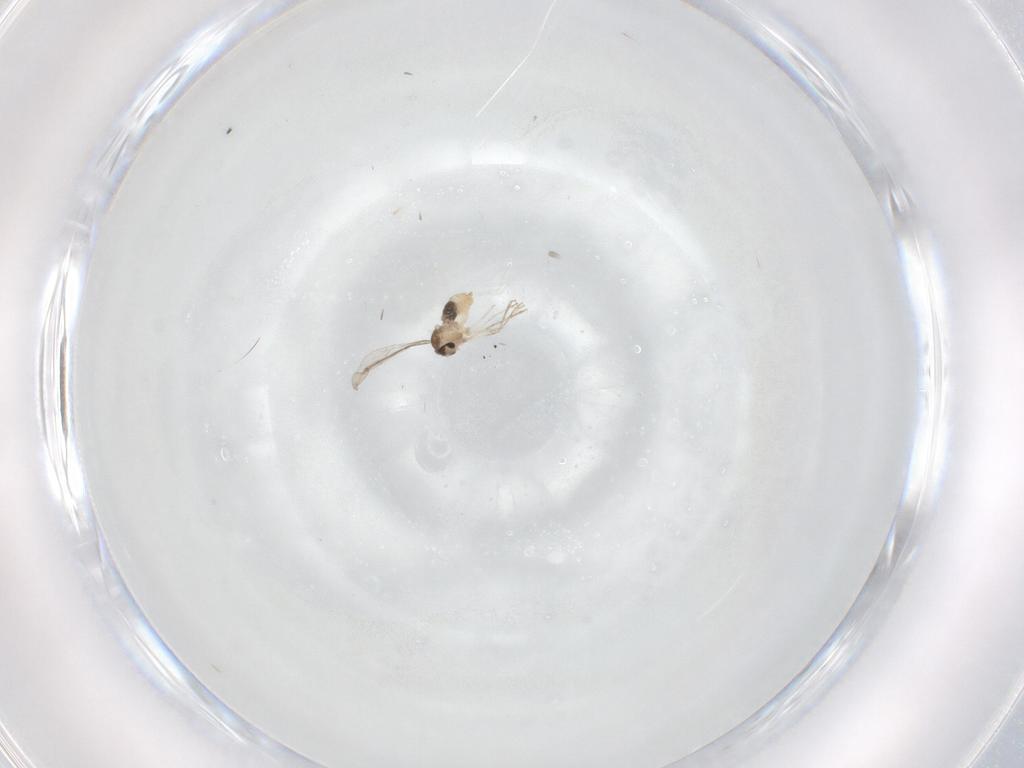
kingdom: Animalia
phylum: Arthropoda
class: Insecta
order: Diptera
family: Cecidomyiidae
